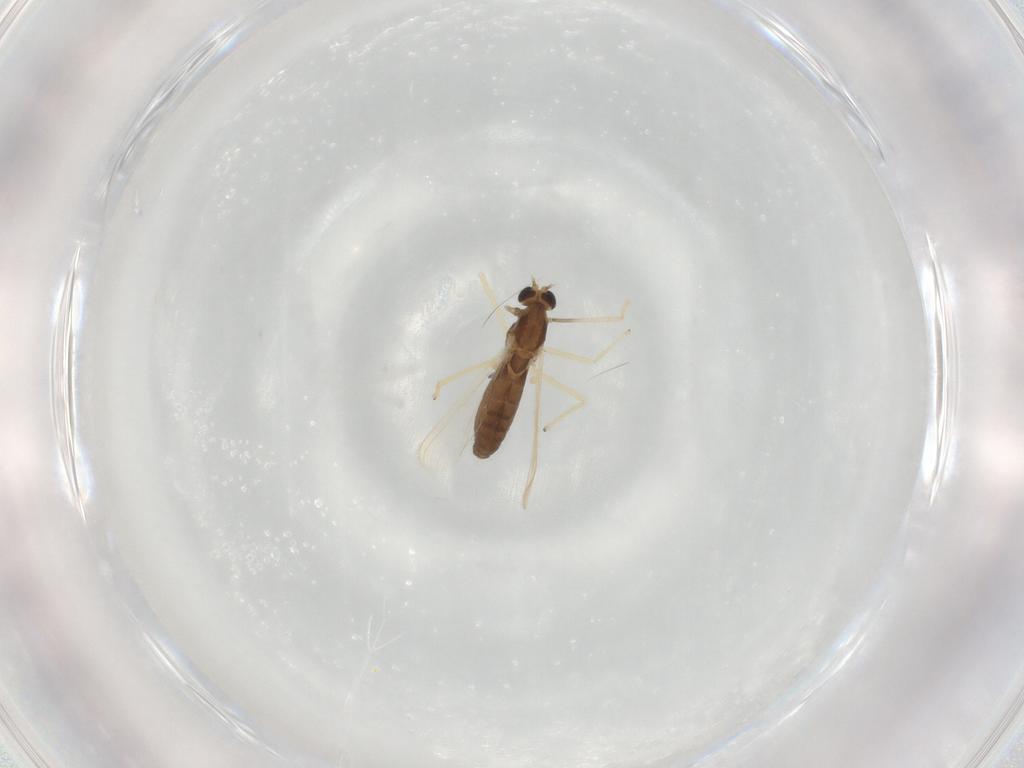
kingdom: Animalia
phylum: Arthropoda
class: Insecta
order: Diptera
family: Chironomidae
